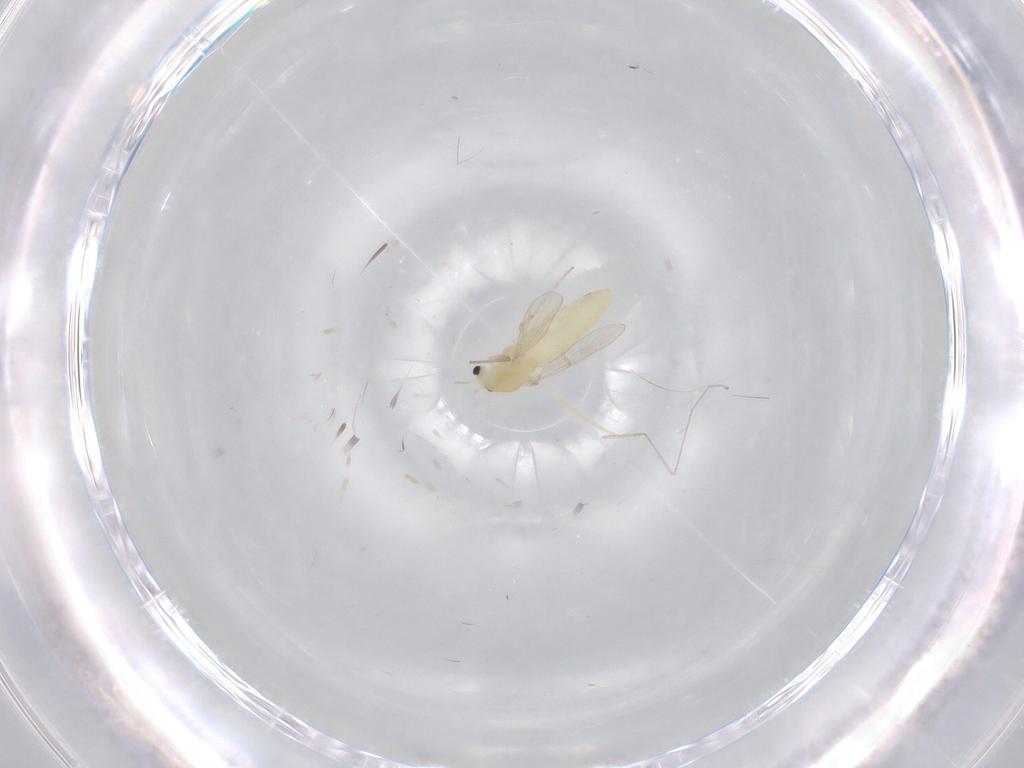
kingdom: Animalia
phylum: Arthropoda
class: Insecta
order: Diptera
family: Chironomidae
